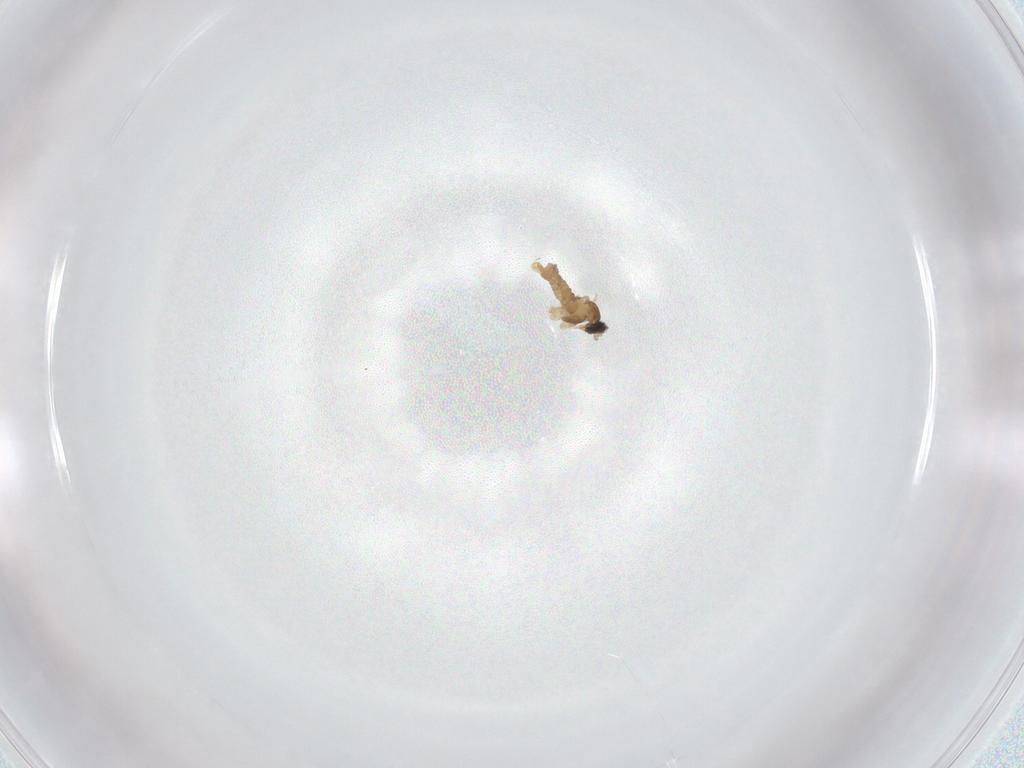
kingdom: Animalia
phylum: Arthropoda
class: Insecta
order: Diptera
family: Cecidomyiidae
